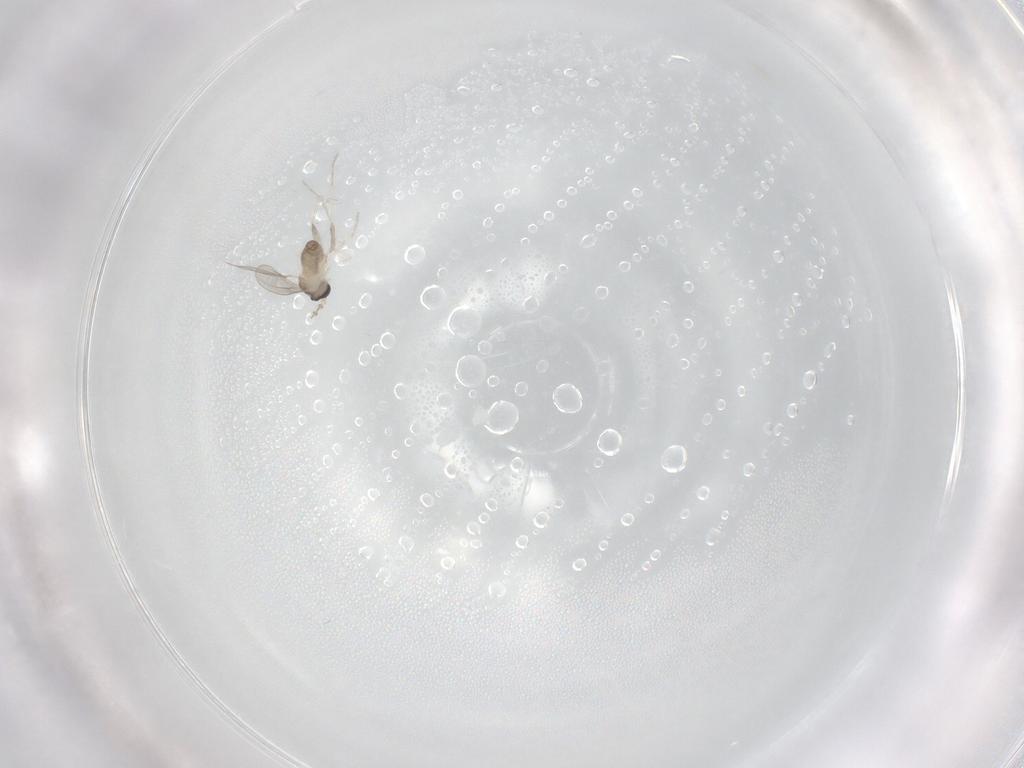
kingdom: Animalia
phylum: Arthropoda
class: Insecta
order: Diptera
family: Cecidomyiidae
